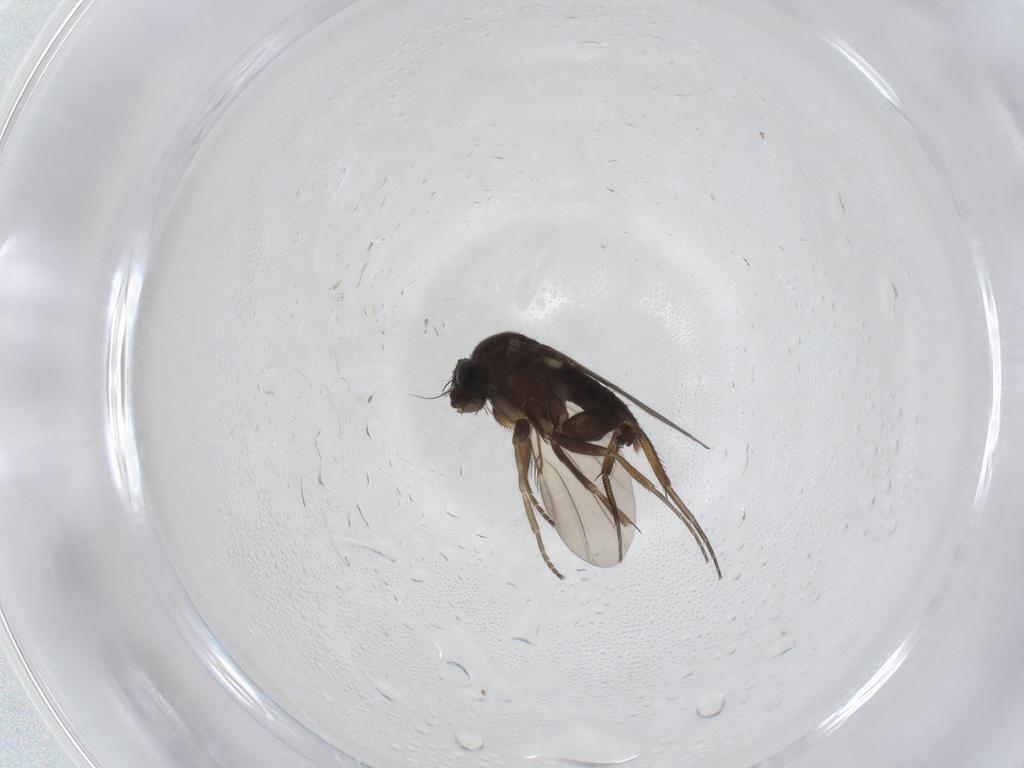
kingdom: Animalia
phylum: Arthropoda
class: Insecta
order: Diptera
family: Phoridae
